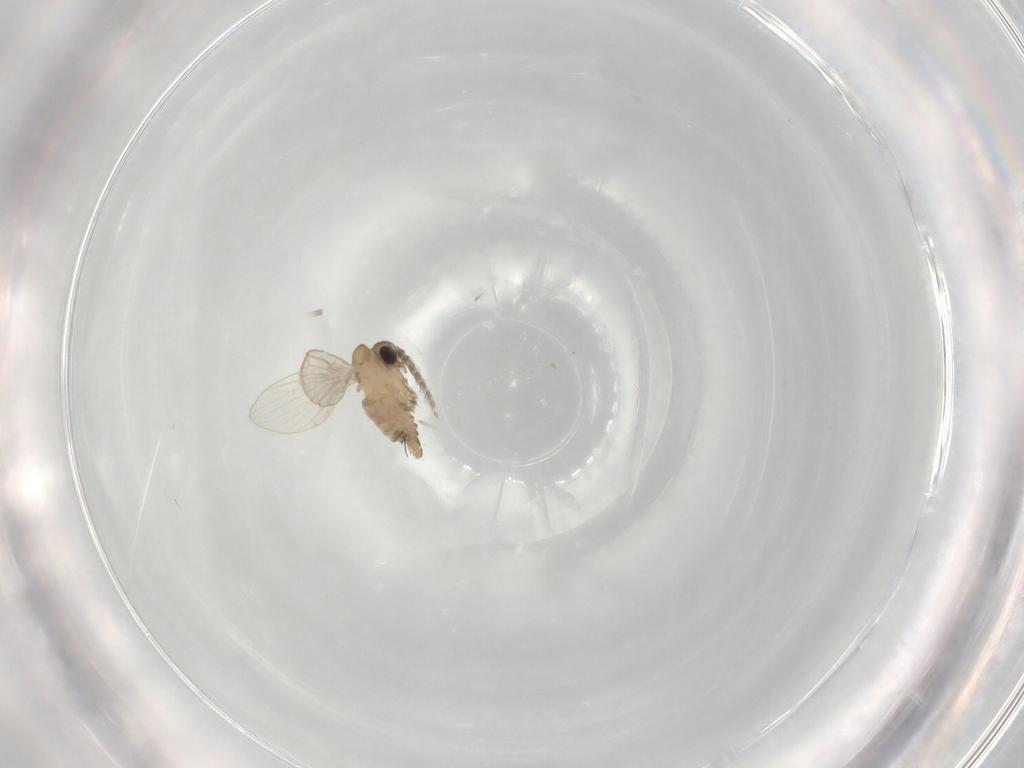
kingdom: Animalia
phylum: Arthropoda
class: Insecta
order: Diptera
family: Psychodidae
